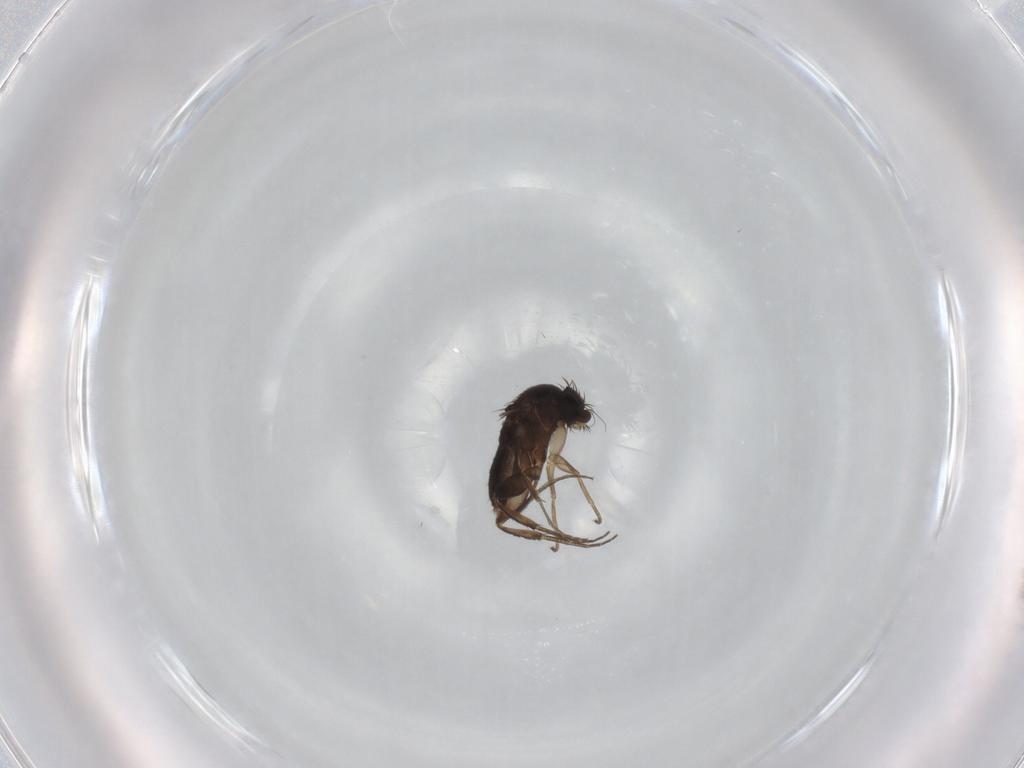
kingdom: Animalia
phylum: Arthropoda
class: Insecta
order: Diptera
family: Phoridae
